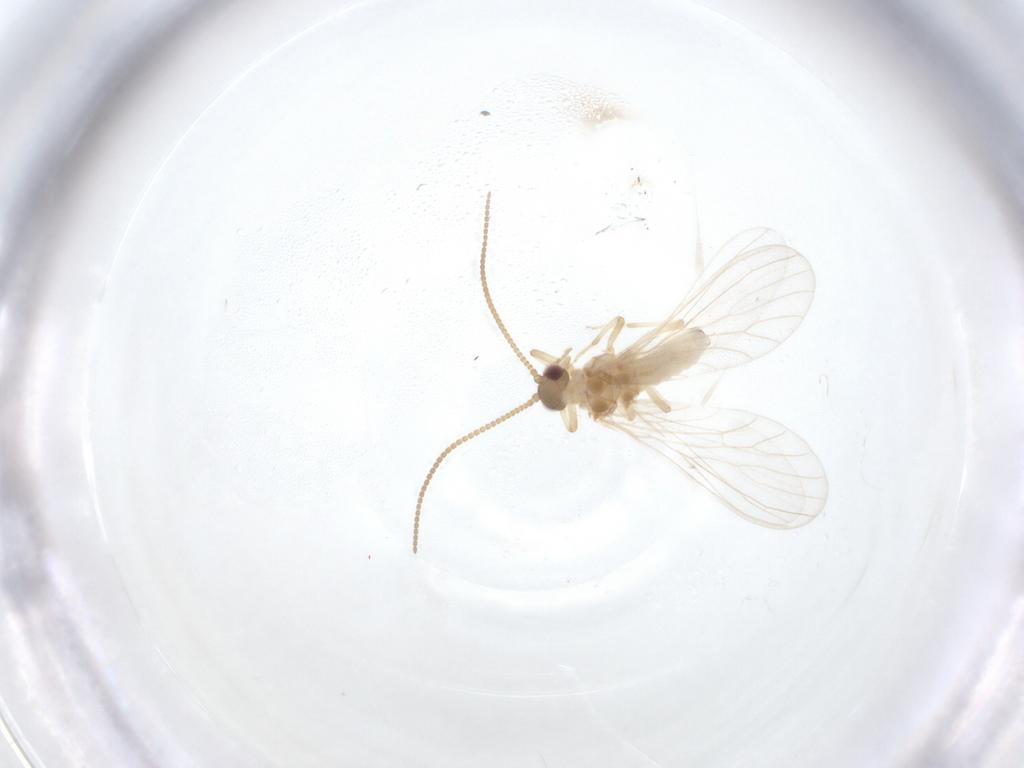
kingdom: Animalia
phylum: Arthropoda
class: Insecta
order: Neuroptera
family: Coniopterygidae
